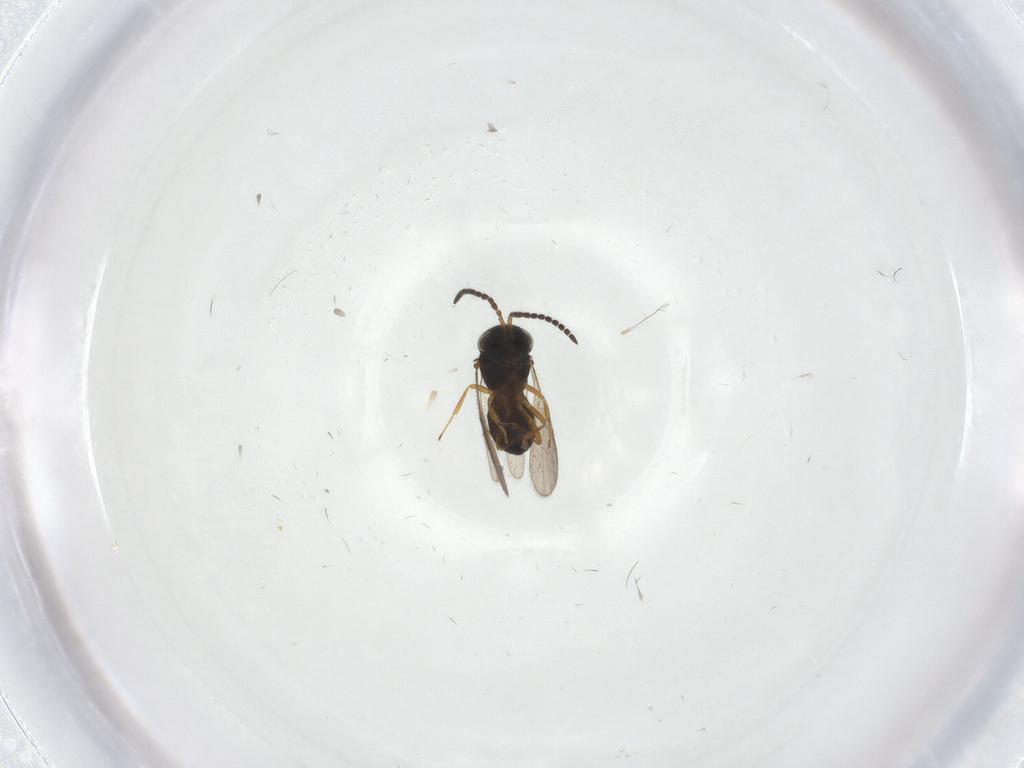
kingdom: Animalia
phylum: Arthropoda
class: Insecta
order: Hymenoptera
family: Scelionidae
